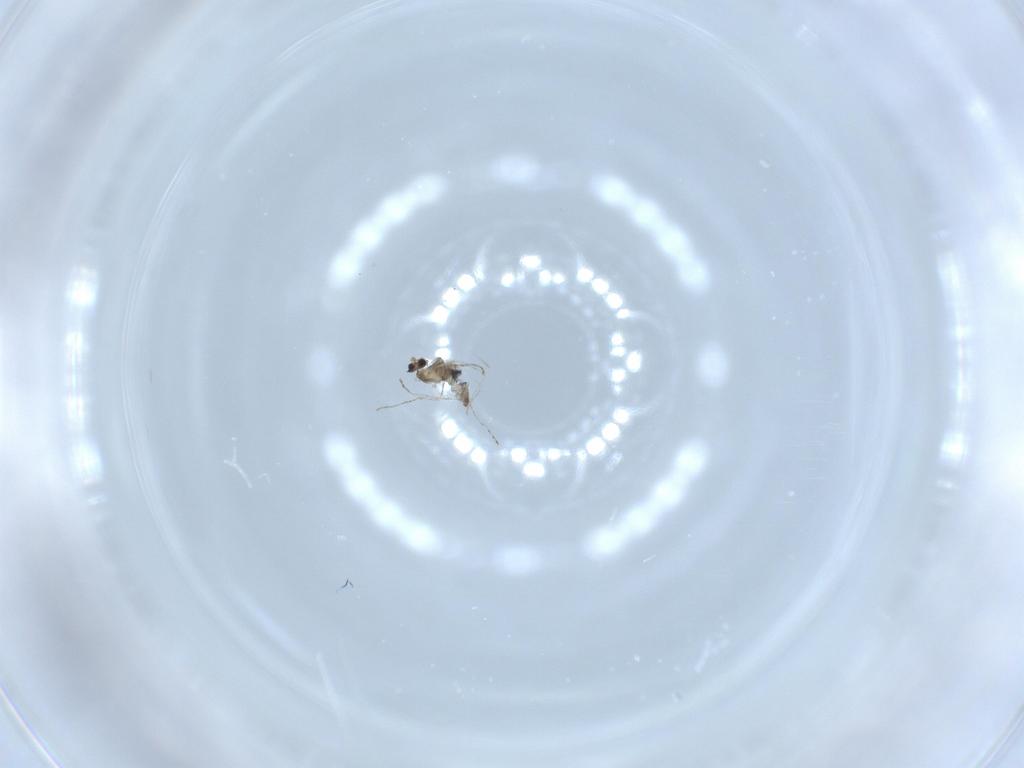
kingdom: Animalia
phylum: Arthropoda
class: Insecta
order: Diptera
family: Cecidomyiidae
